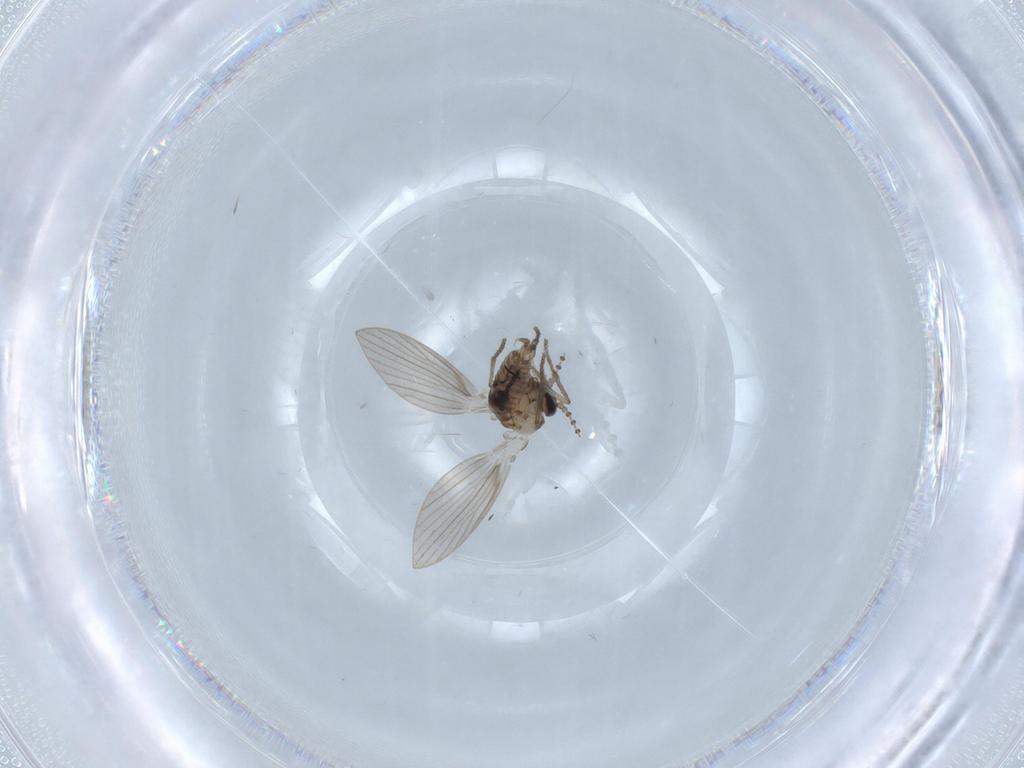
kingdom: Animalia
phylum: Arthropoda
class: Insecta
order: Diptera
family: Psychodidae
